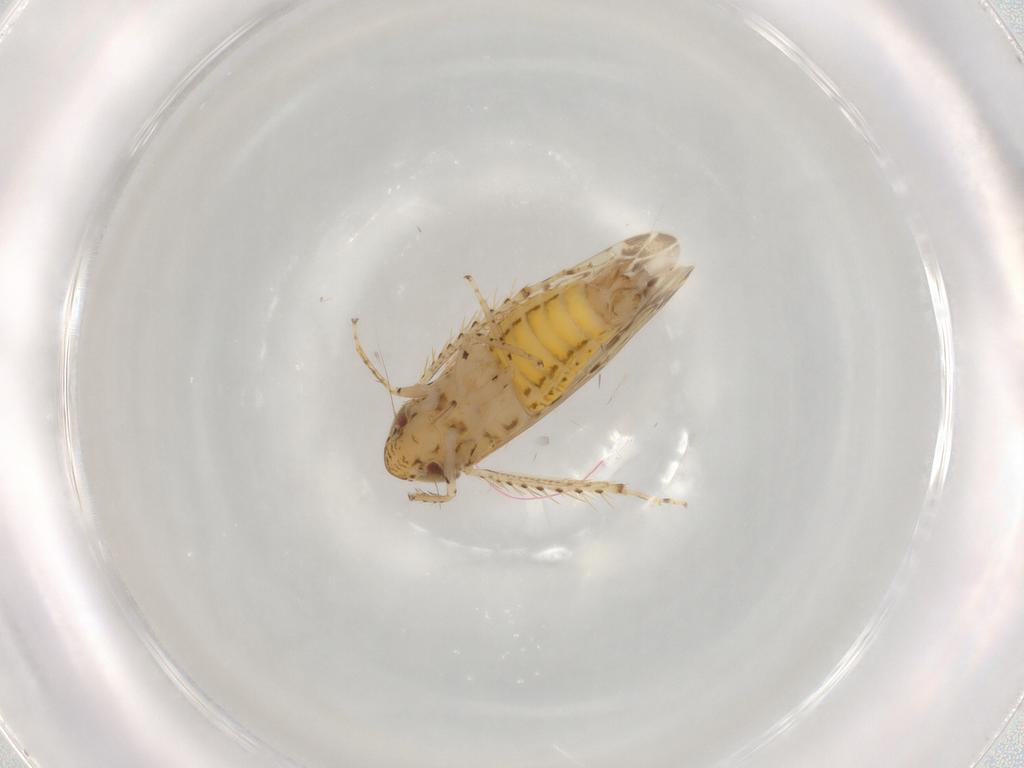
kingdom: Animalia
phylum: Arthropoda
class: Insecta
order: Hemiptera
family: Cicadellidae
